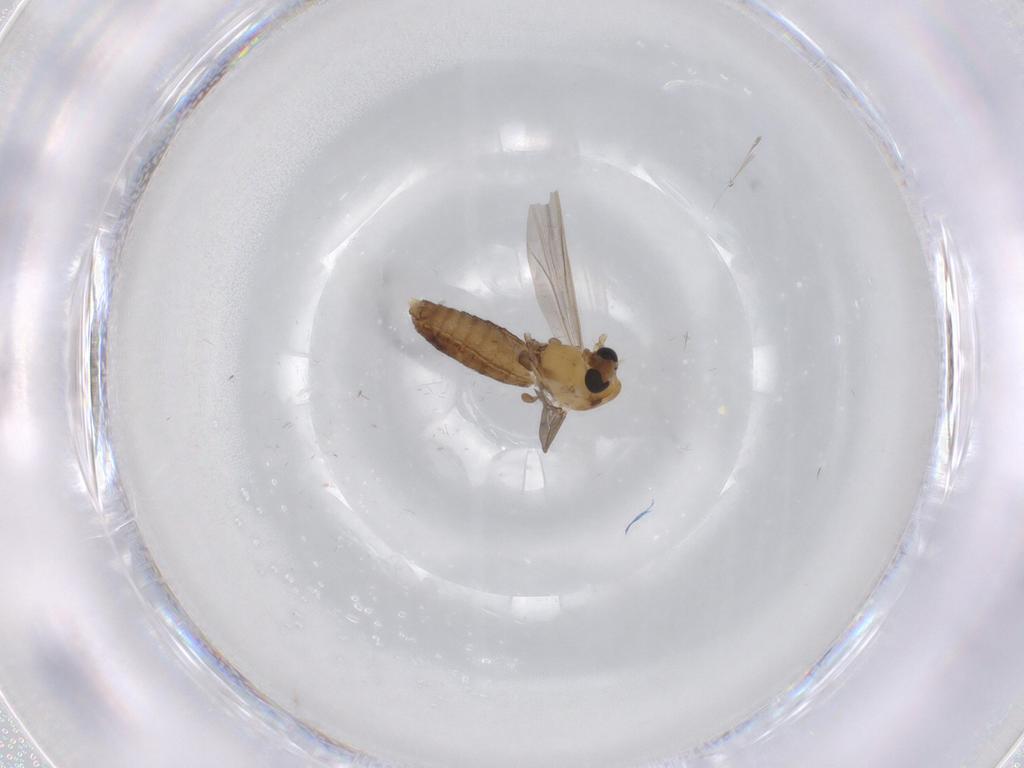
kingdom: Animalia
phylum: Arthropoda
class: Insecta
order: Diptera
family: Chironomidae
